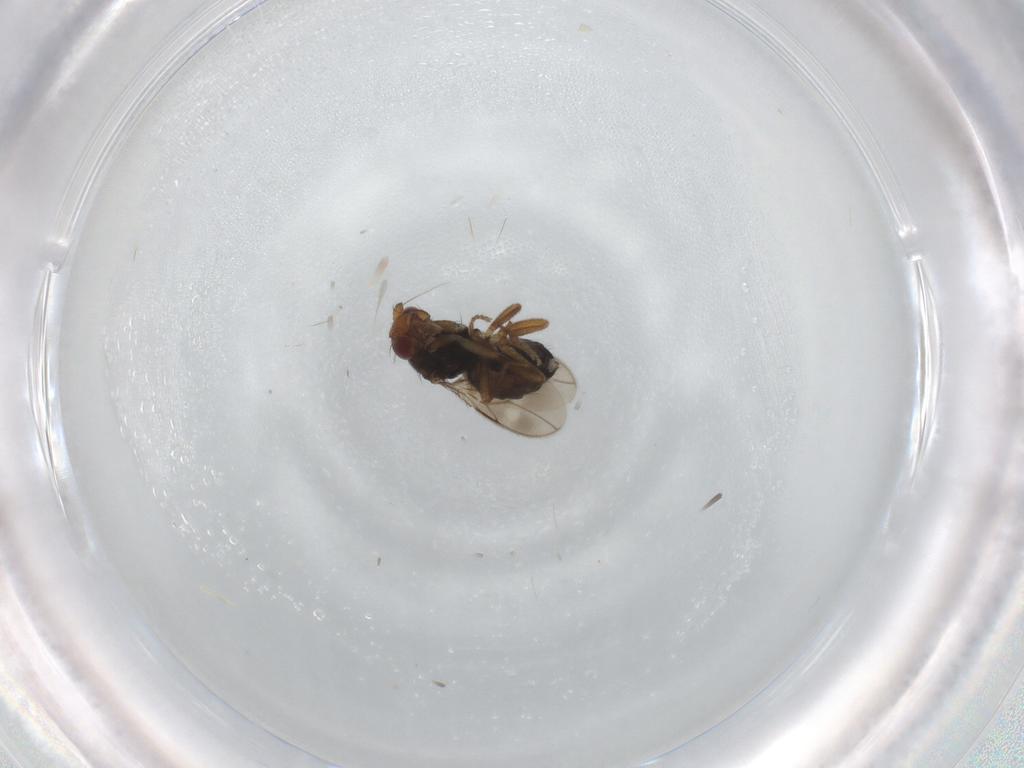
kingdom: Animalia
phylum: Arthropoda
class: Insecta
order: Diptera
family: Sphaeroceridae
